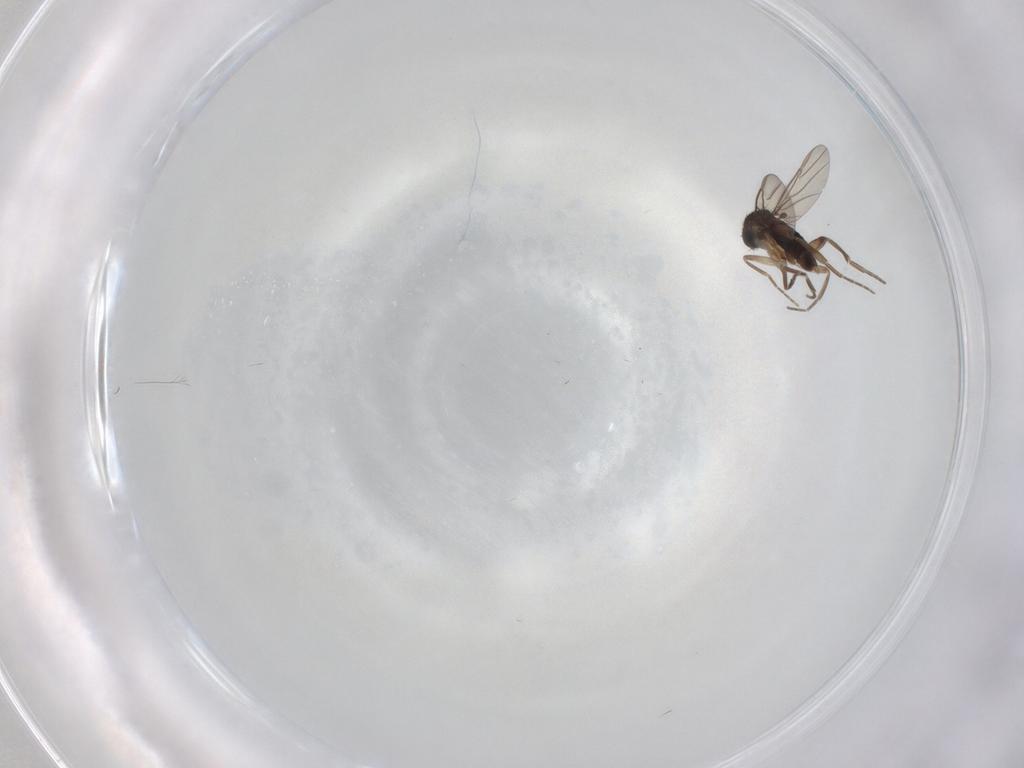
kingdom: Animalia
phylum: Arthropoda
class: Insecta
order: Diptera
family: Phoridae
